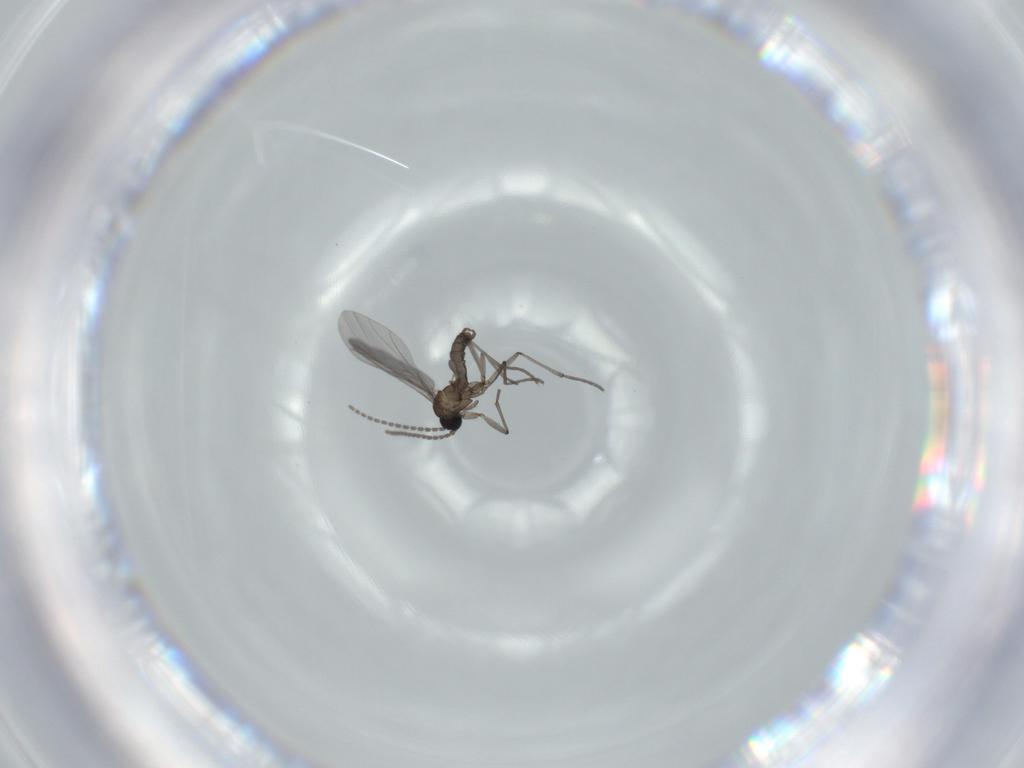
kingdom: Animalia
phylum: Arthropoda
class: Insecta
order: Diptera
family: Sciaridae
